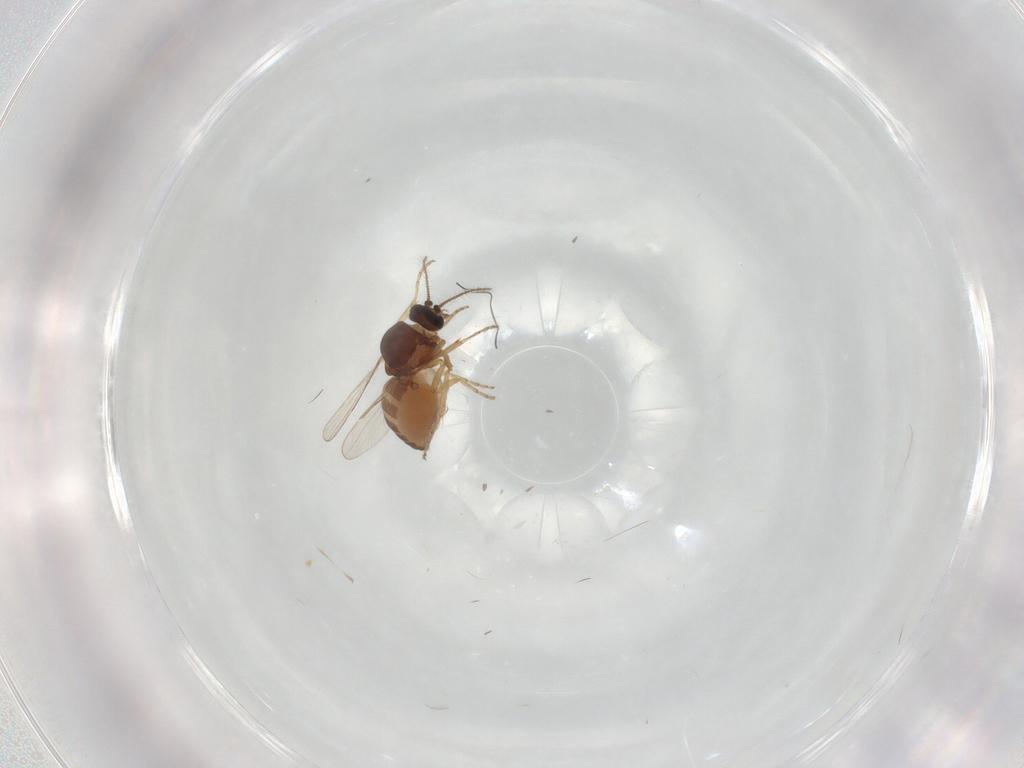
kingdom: Animalia
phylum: Arthropoda
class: Insecta
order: Diptera
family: Ceratopogonidae
